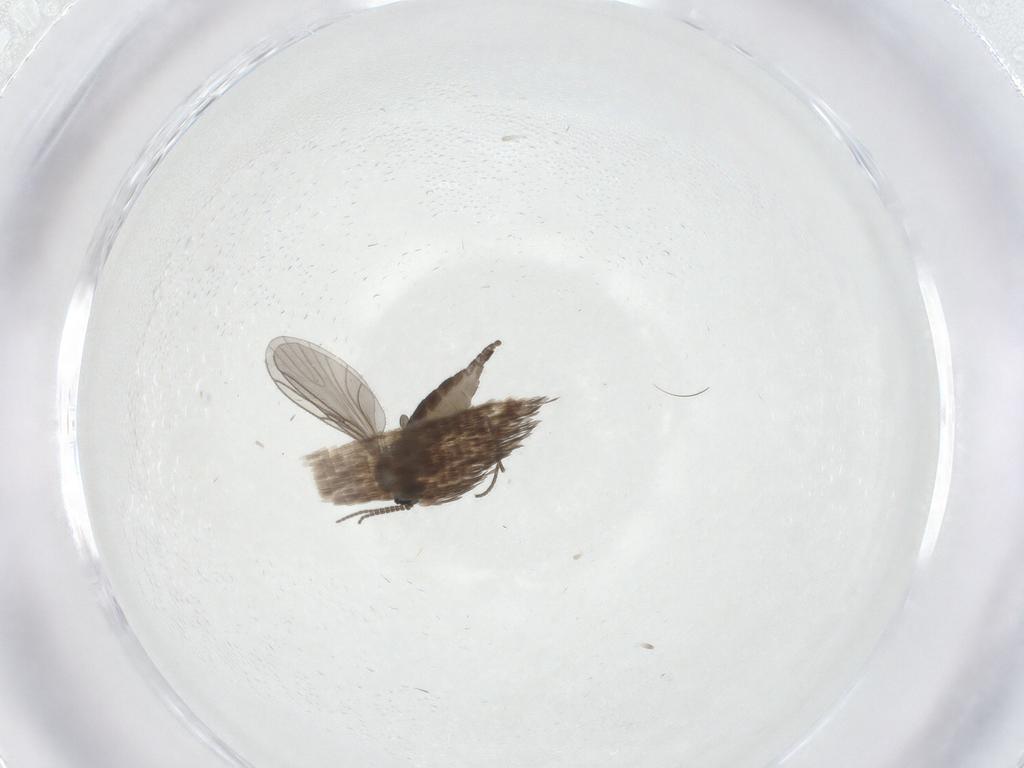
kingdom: Animalia
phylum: Arthropoda
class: Insecta
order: Diptera
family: Sciaridae
